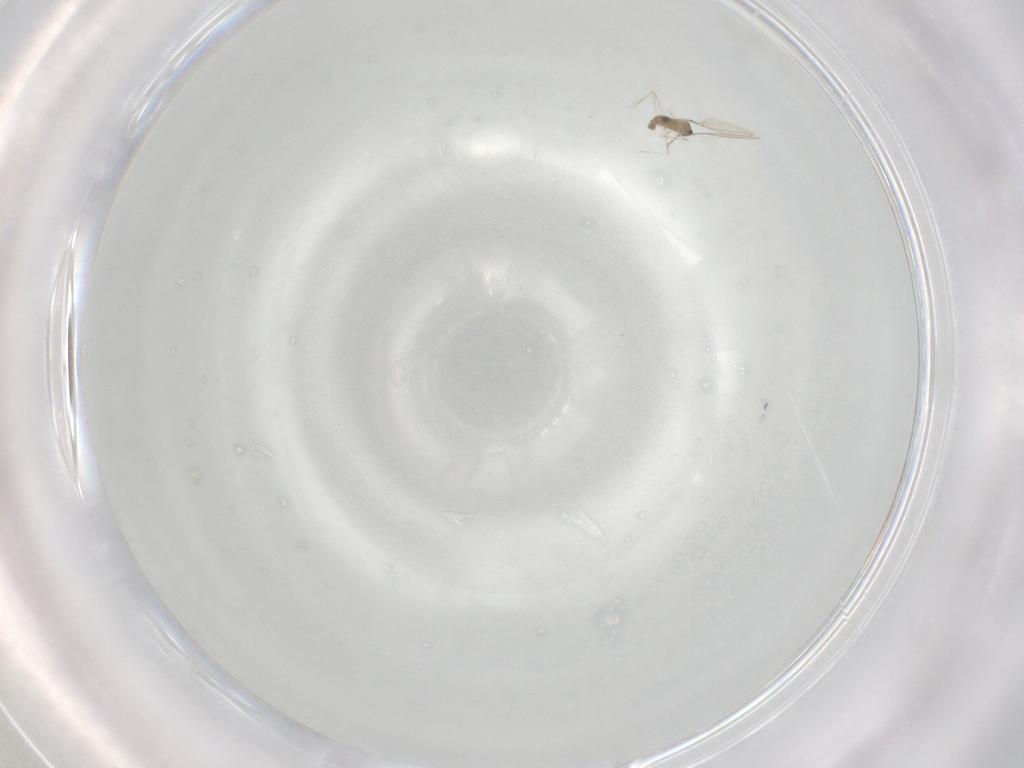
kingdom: Animalia
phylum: Arthropoda
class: Insecta
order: Diptera
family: Cecidomyiidae
